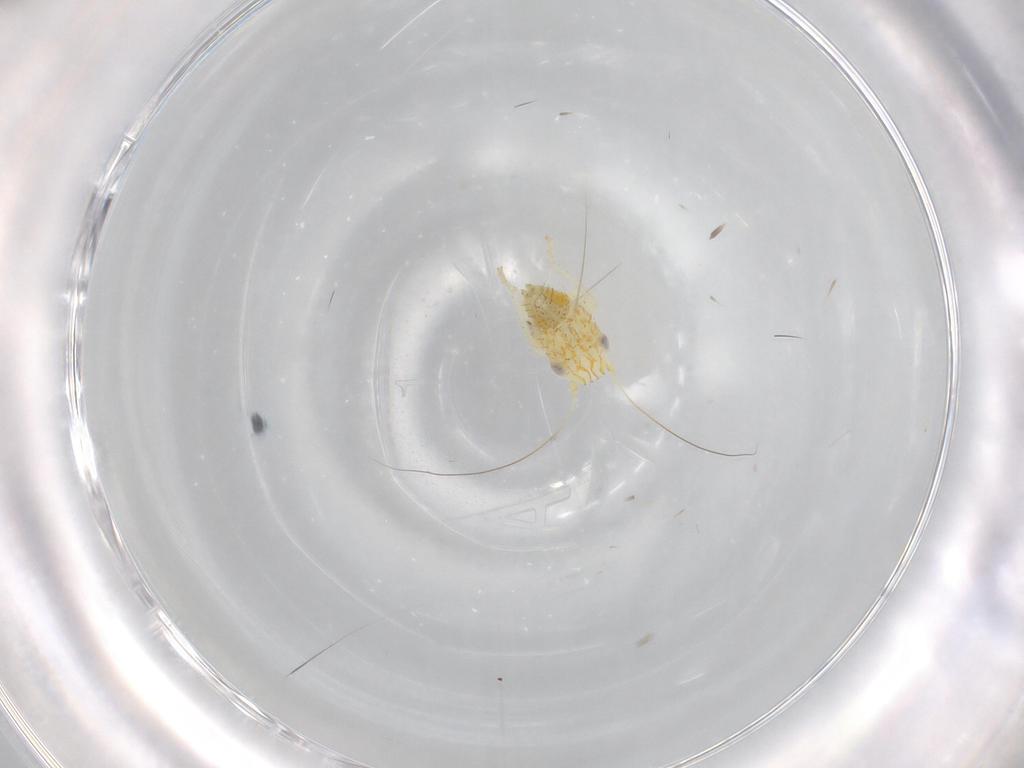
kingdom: Animalia
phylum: Arthropoda
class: Insecta
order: Hemiptera
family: Cicadellidae
